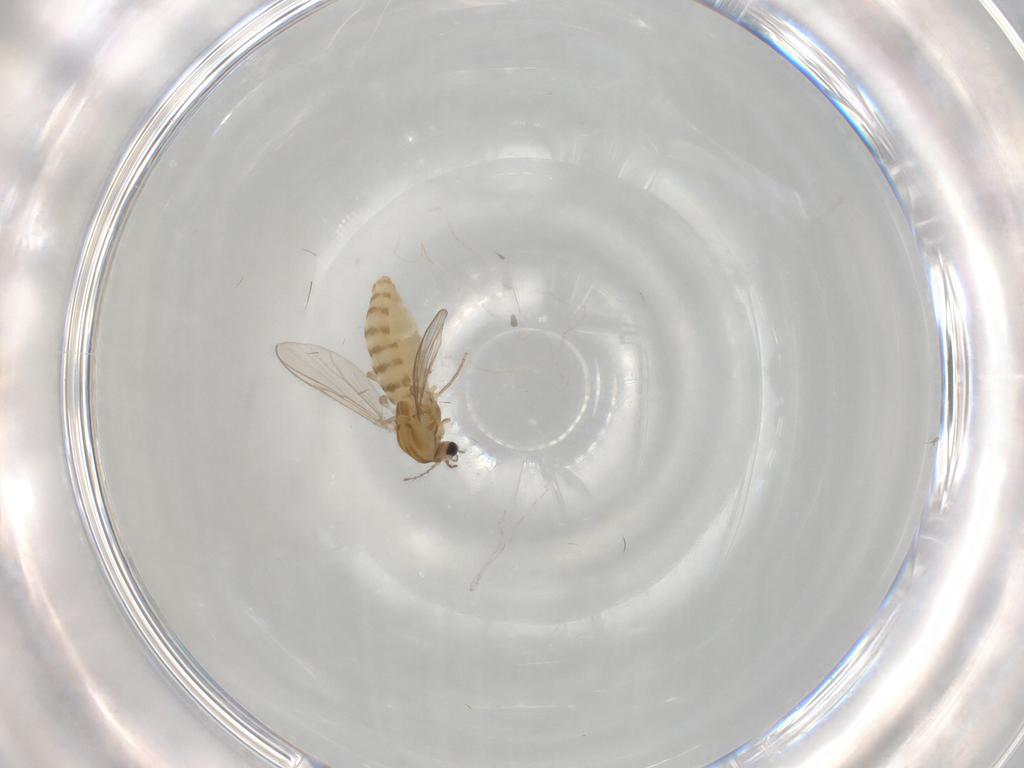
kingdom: Animalia
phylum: Arthropoda
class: Insecta
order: Diptera
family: Chironomidae
